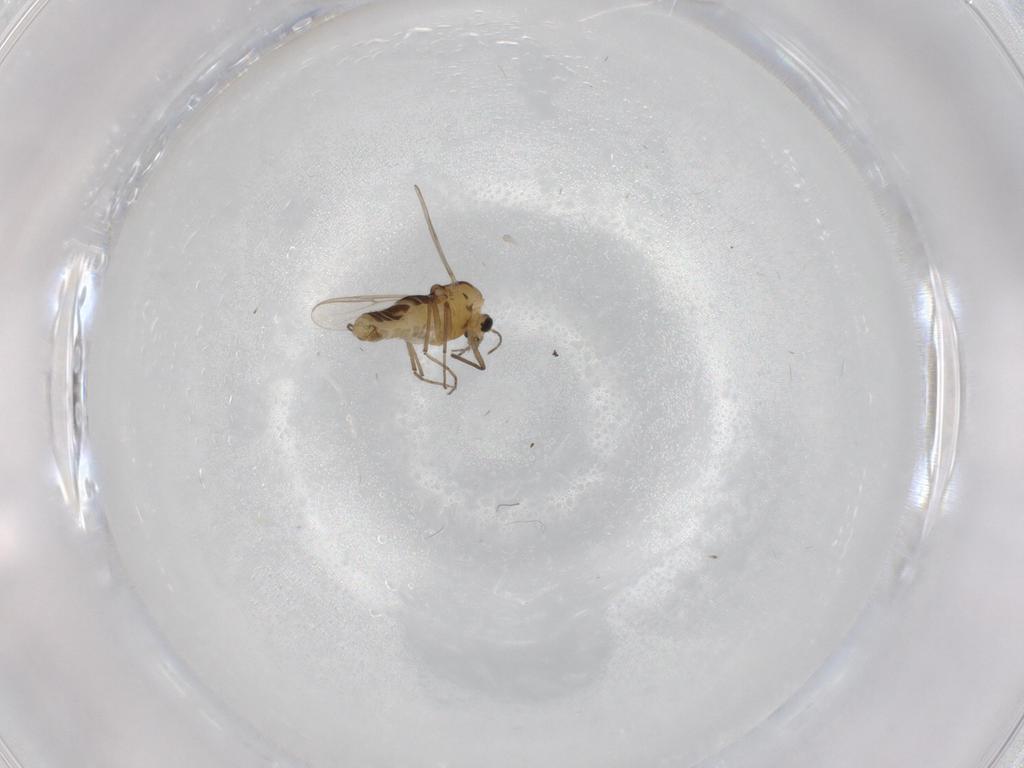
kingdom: Animalia
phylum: Arthropoda
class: Insecta
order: Diptera
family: Chironomidae
